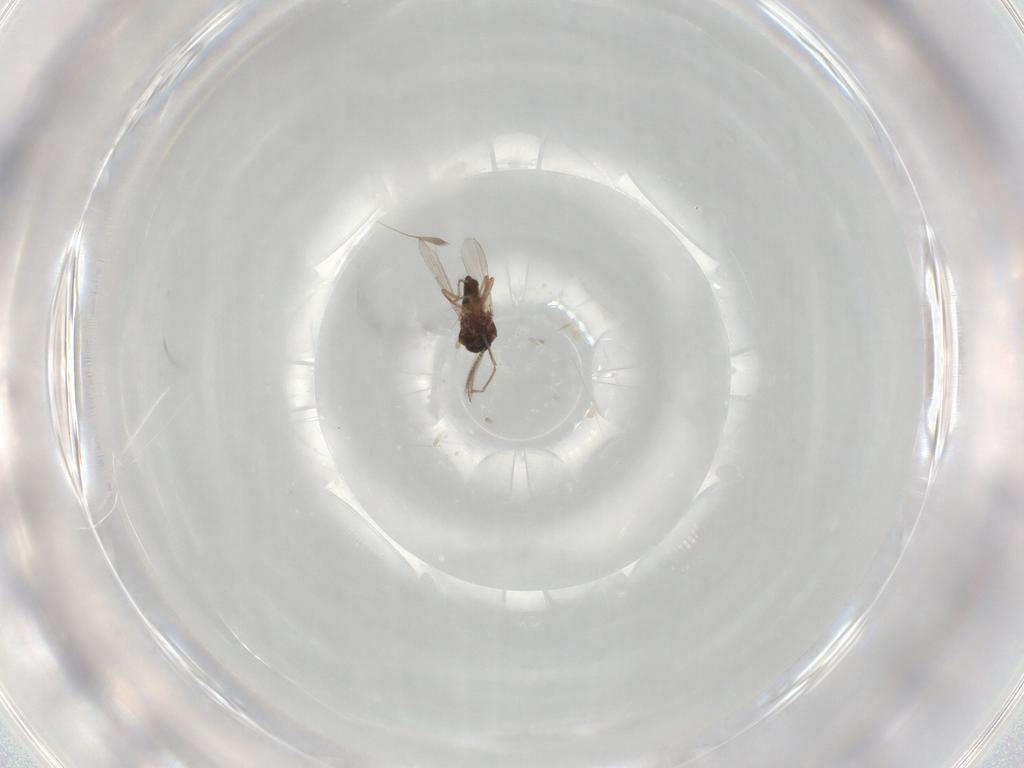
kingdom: Animalia
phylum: Arthropoda
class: Insecta
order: Diptera
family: Ceratopogonidae
